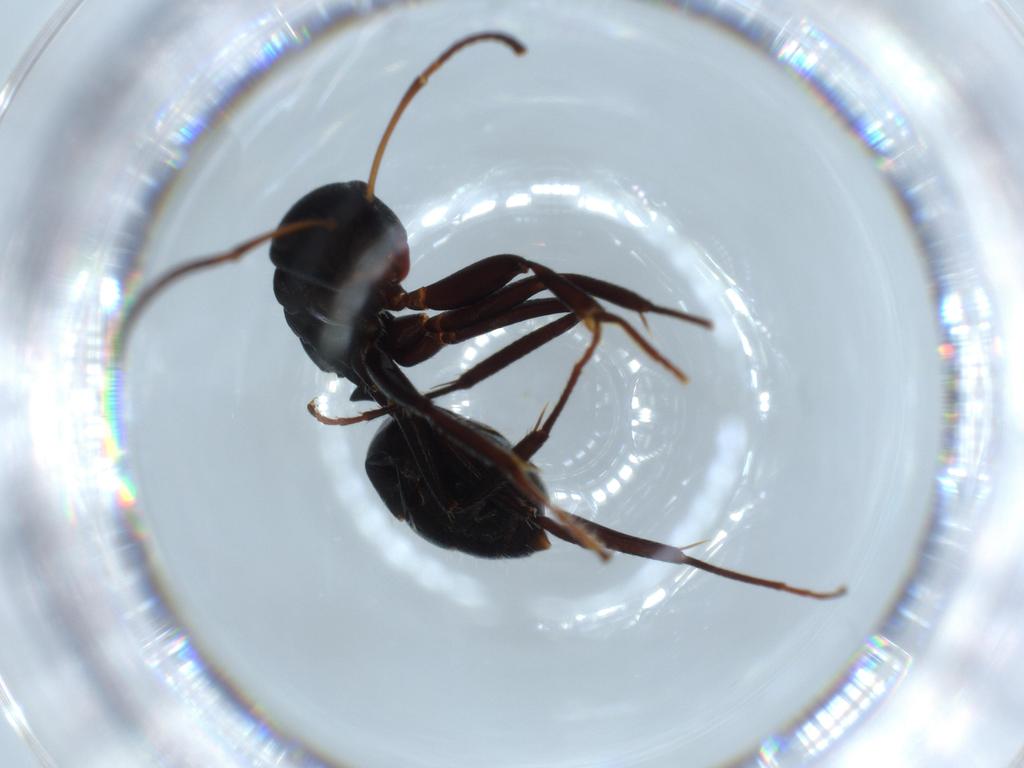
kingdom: Animalia
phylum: Arthropoda
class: Insecta
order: Hymenoptera
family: Formicidae
